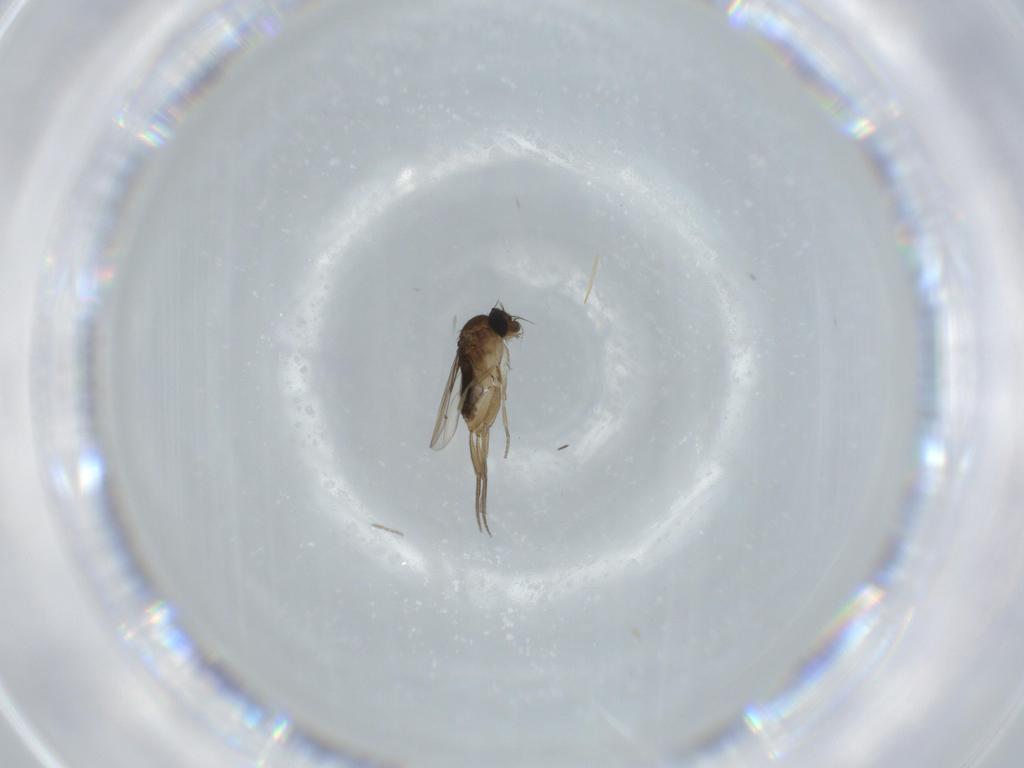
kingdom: Animalia
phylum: Arthropoda
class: Insecta
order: Diptera
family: Phoridae
